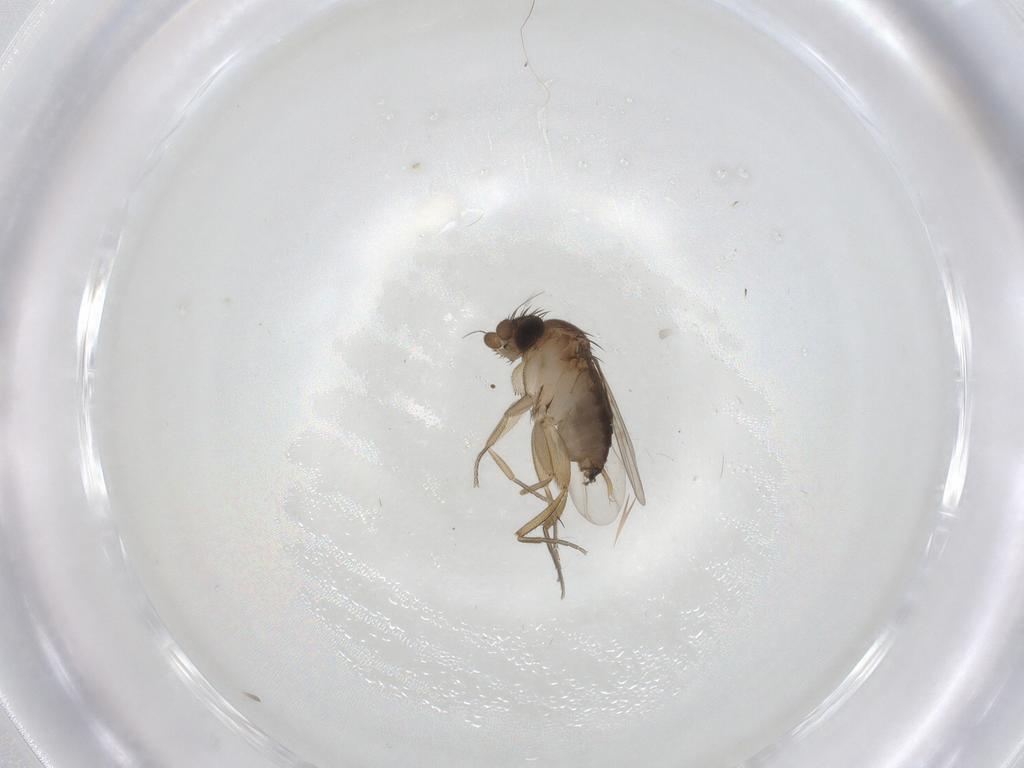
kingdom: Animalia
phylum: Arthropoda
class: Insecta
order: Diptera
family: Phoridae
